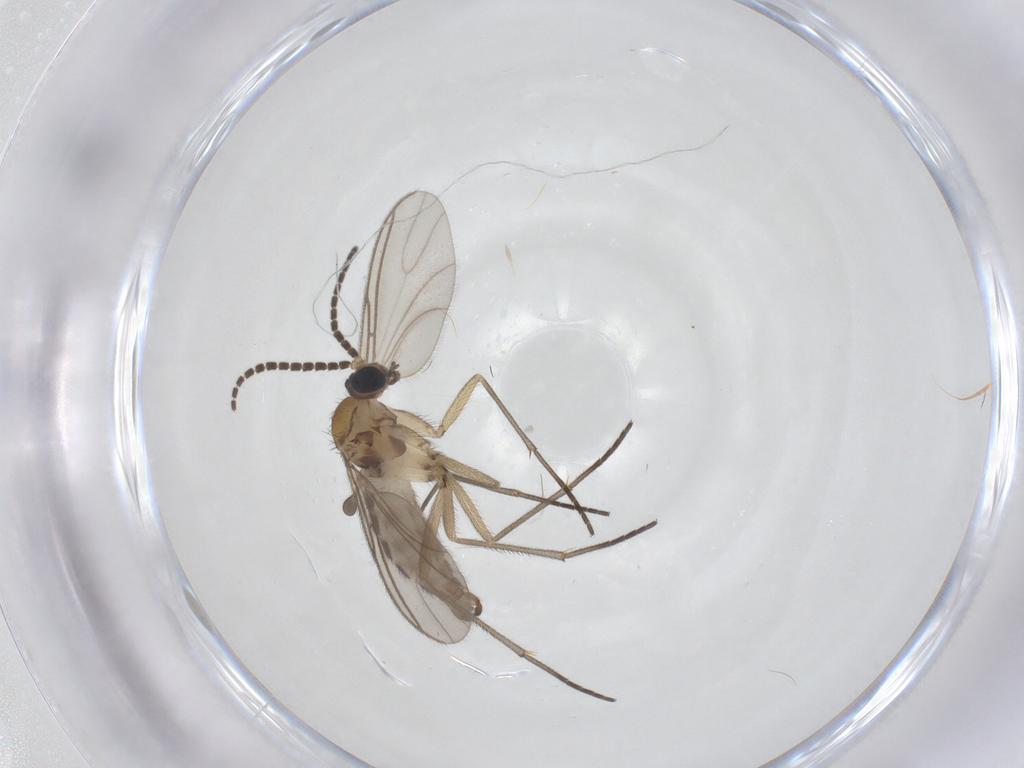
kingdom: Animalia
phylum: Arthropoda
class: Insecta
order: Diptera
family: Sciaridae
